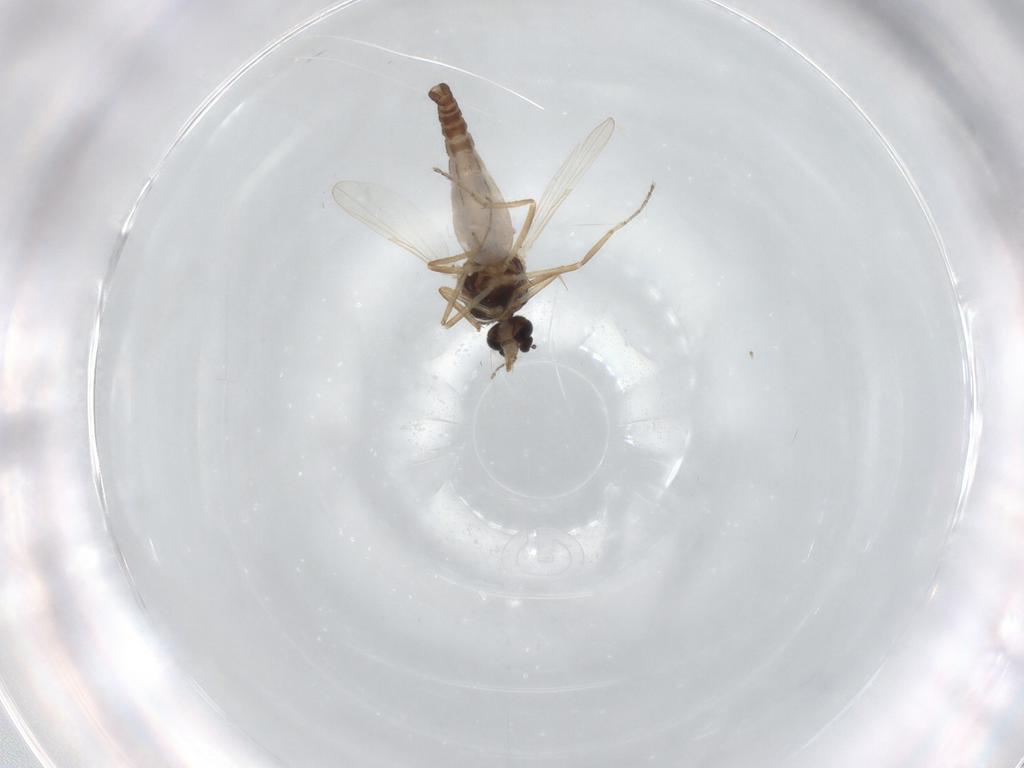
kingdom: Animalia
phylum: Arthropoda
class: Insecta
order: Diptera
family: Ceratopogonidae
